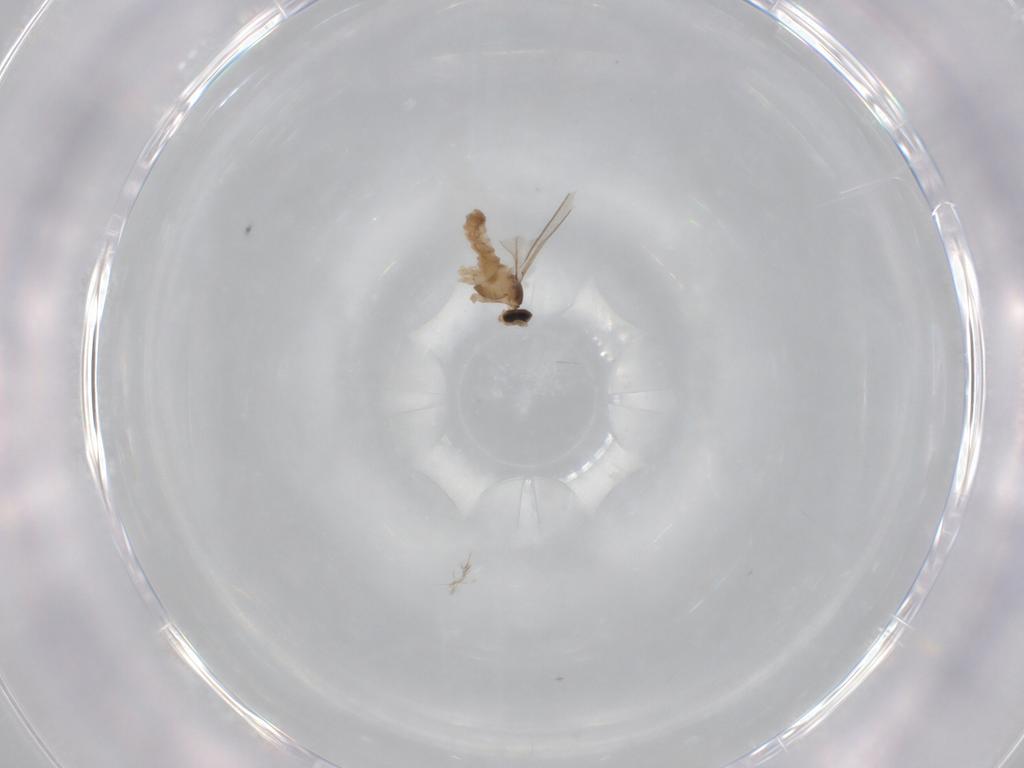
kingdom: Animalia
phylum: Arthropoda
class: Insecta
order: Diptera
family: Cecidomyiidae
